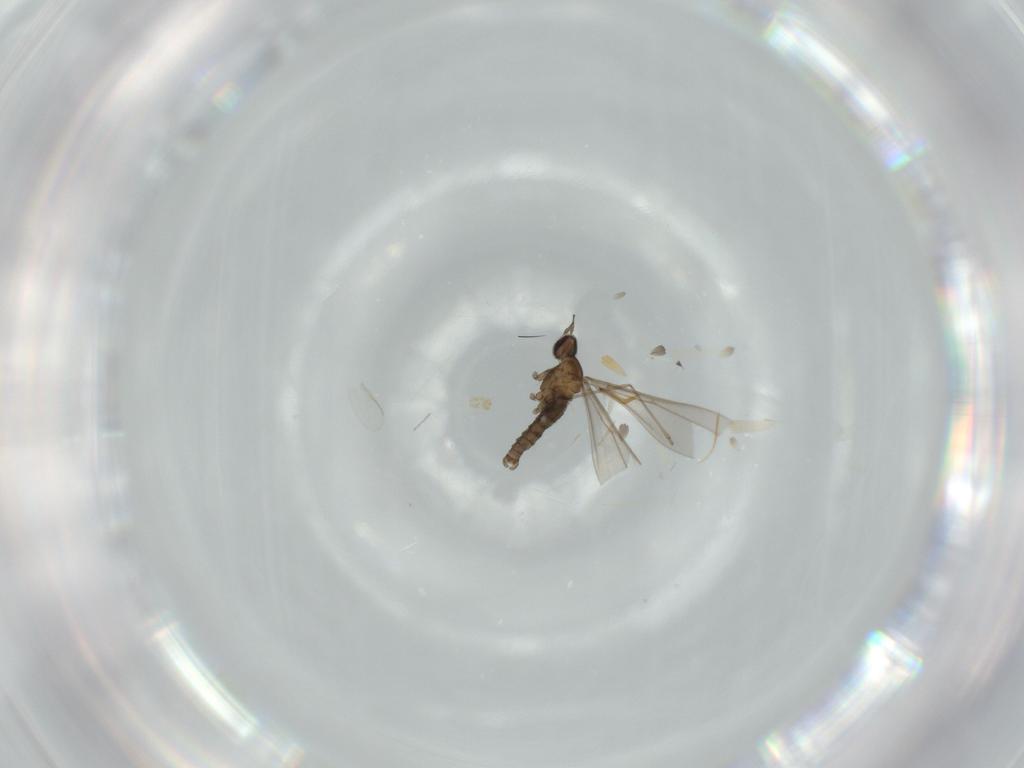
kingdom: Animalia
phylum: Arthropoda
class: Insecta
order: Diptera
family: Cecidomyiidae
